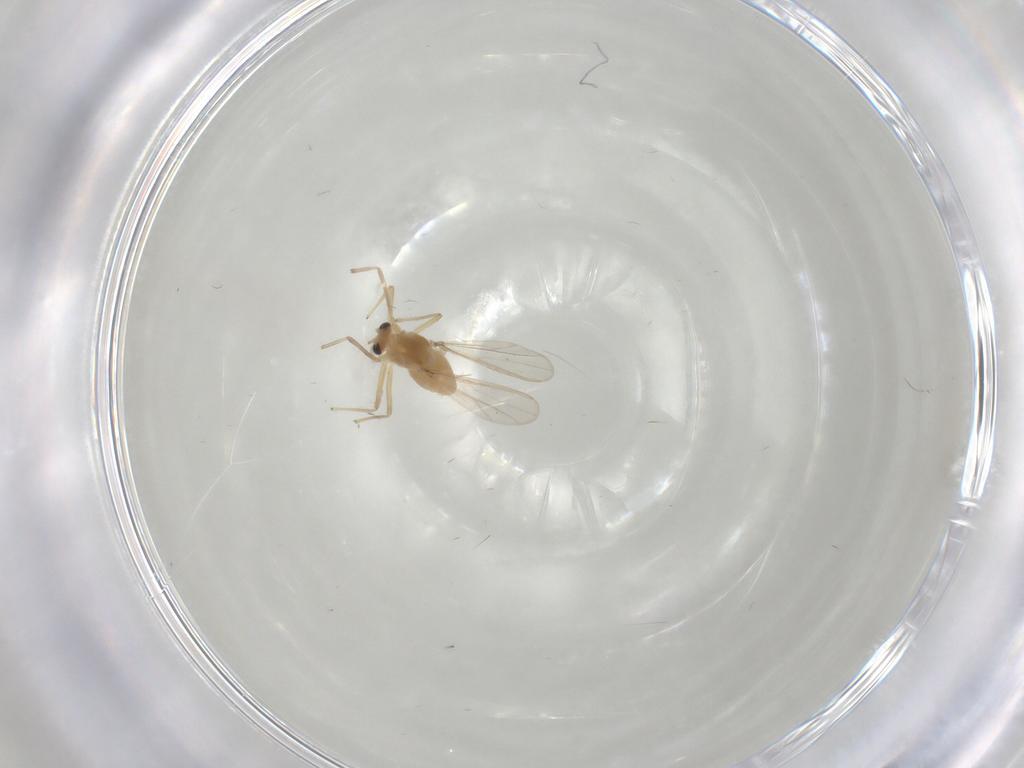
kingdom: Animalia
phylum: Arthropoda
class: Insecta
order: Diptera
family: Chironomidae
